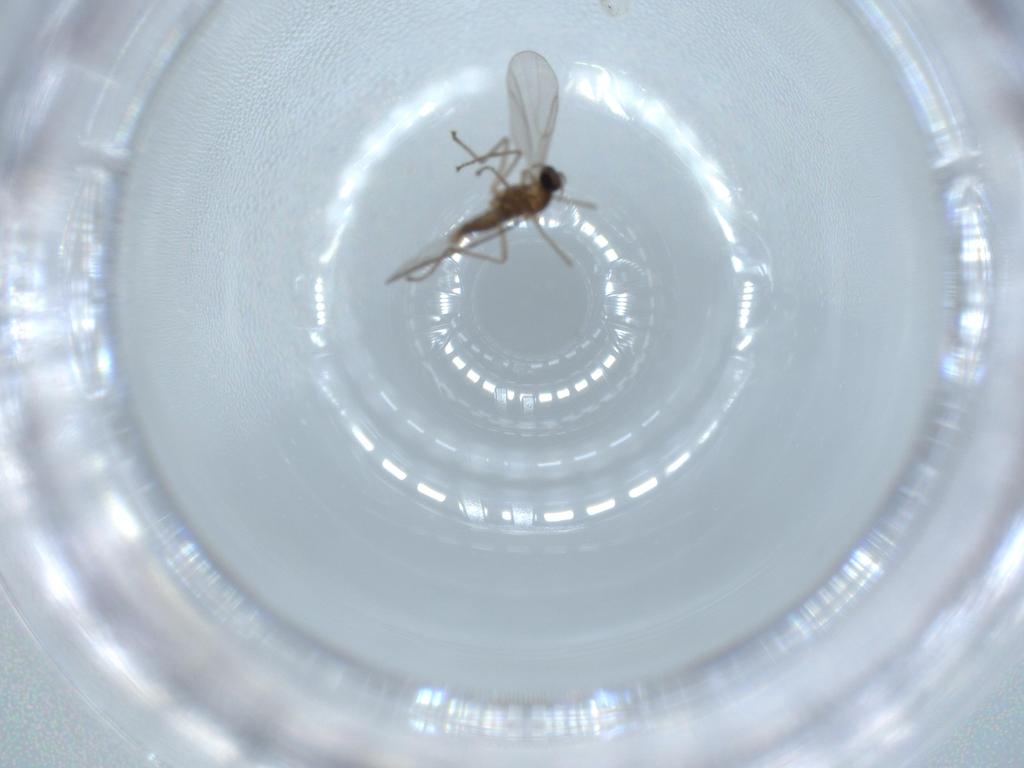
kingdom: Animalia
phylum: Arthropoda
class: Insecta
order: Diptera
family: Cecidomyiidae
